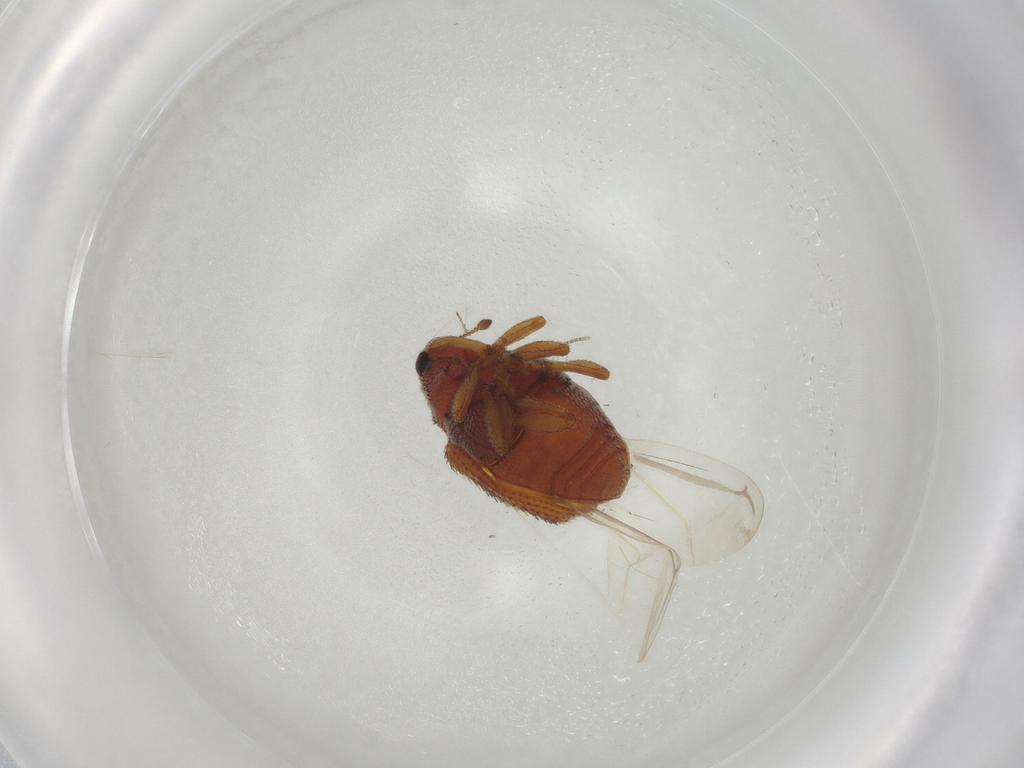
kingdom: Animalia
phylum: Arthropoda
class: Insecta
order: Coleoptera
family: Curculionidae
